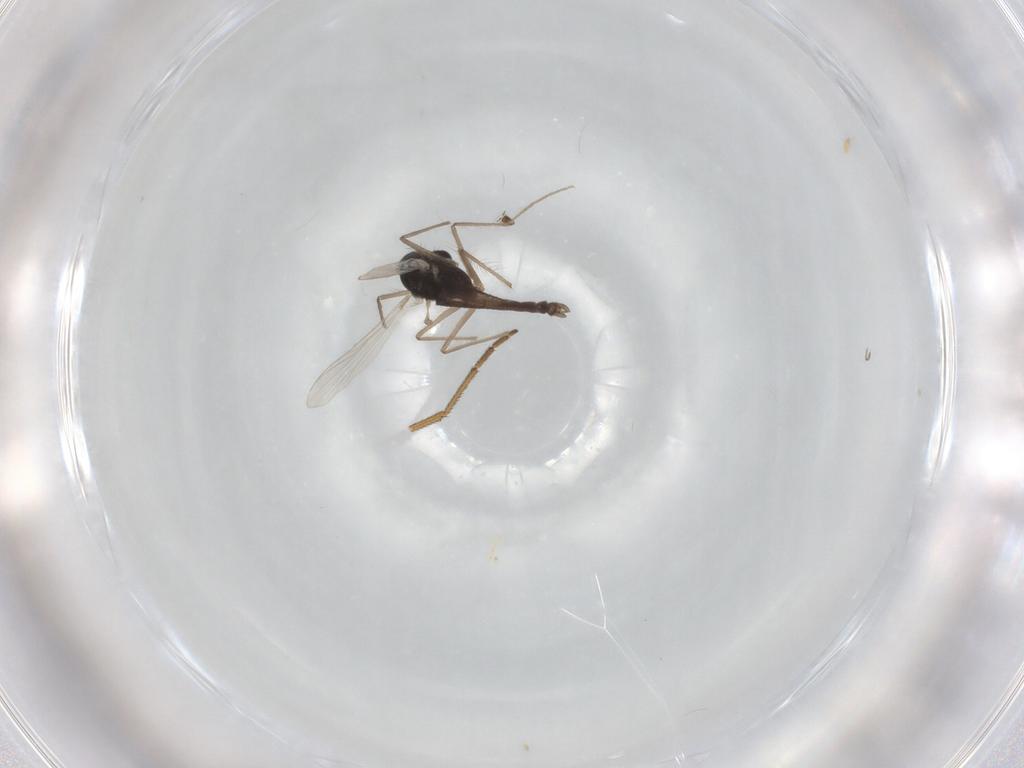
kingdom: Animalia
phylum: Arthropoda
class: Insecta
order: Diptera
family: Chironomidae
